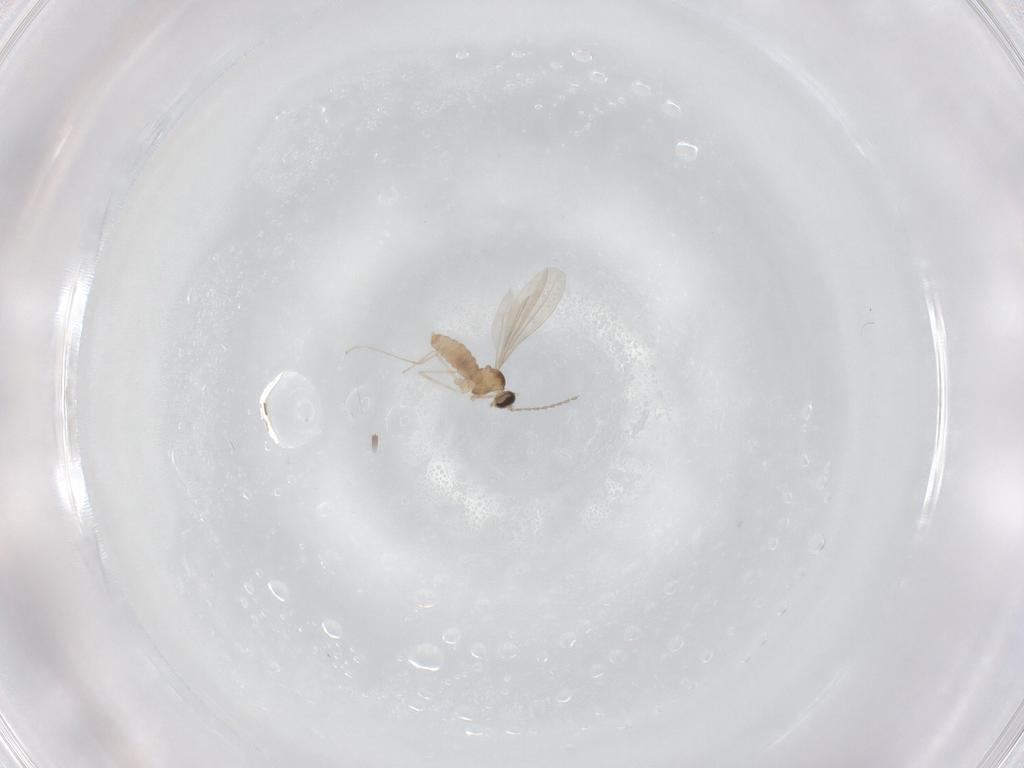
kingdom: Animalia
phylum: Arthropoda
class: Insecta
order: Diptera
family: Cecidomyiidae
